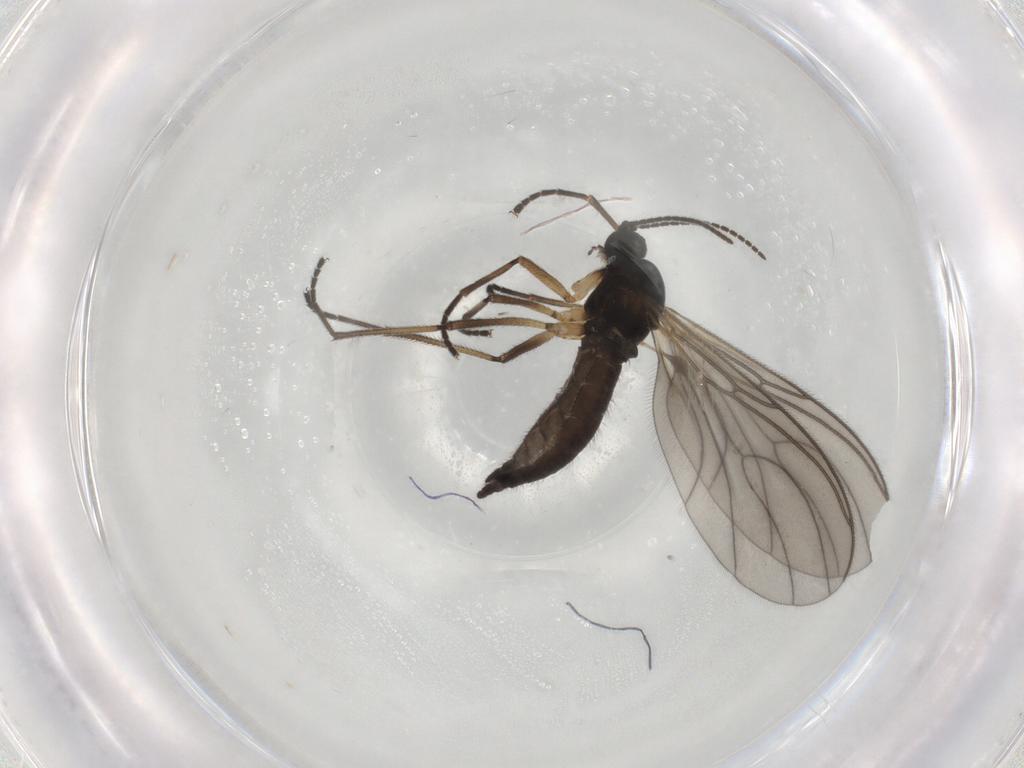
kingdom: Animalia
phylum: Arthropoda
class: Insecta
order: Diptera
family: Sciaridae
